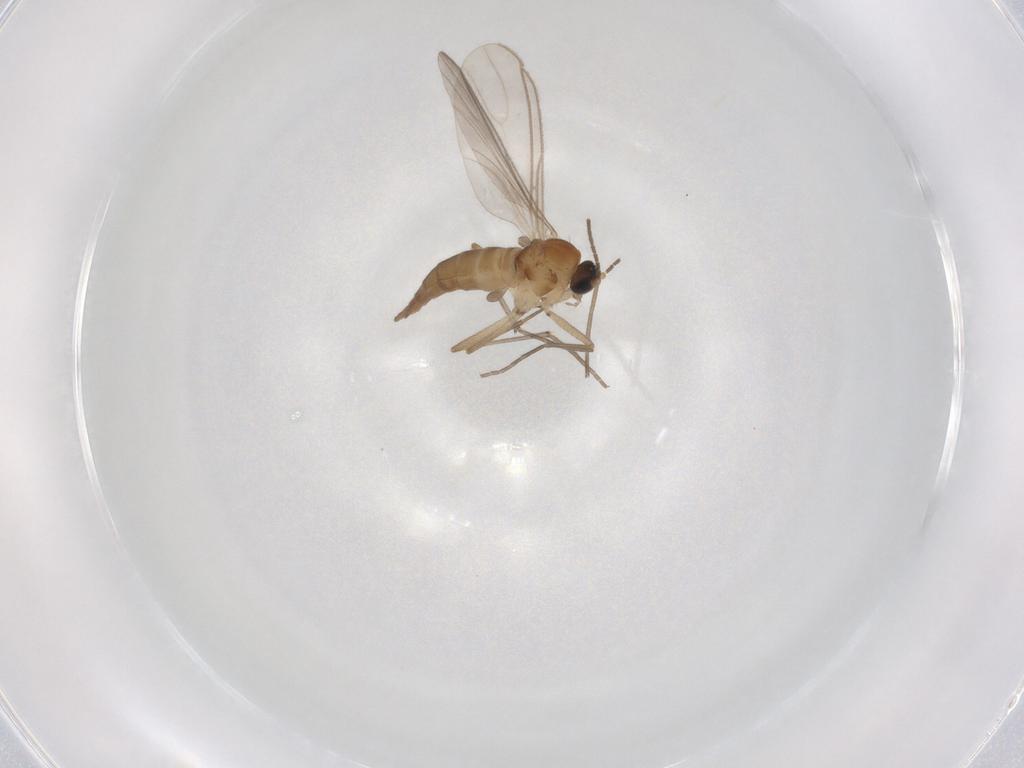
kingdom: Animalia
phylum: Arthropoda
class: Insecta
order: Diptera
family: Sciaridae
